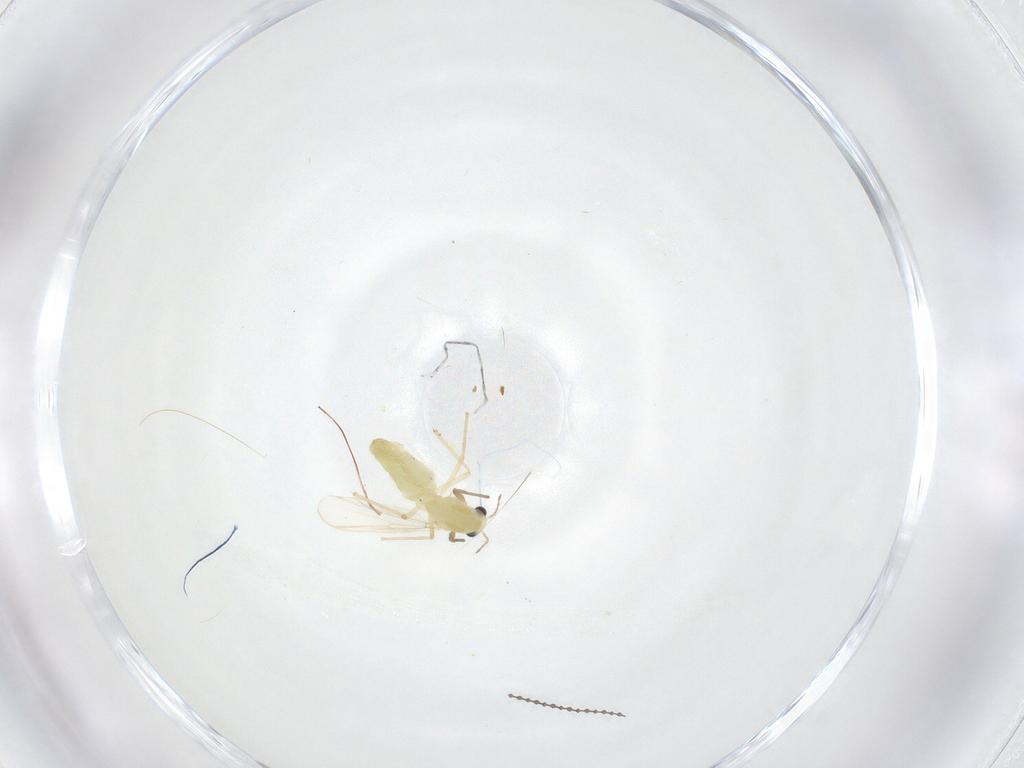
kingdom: Animalia
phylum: Arthropoda
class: Insecta
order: Diptera
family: Chironomidae
